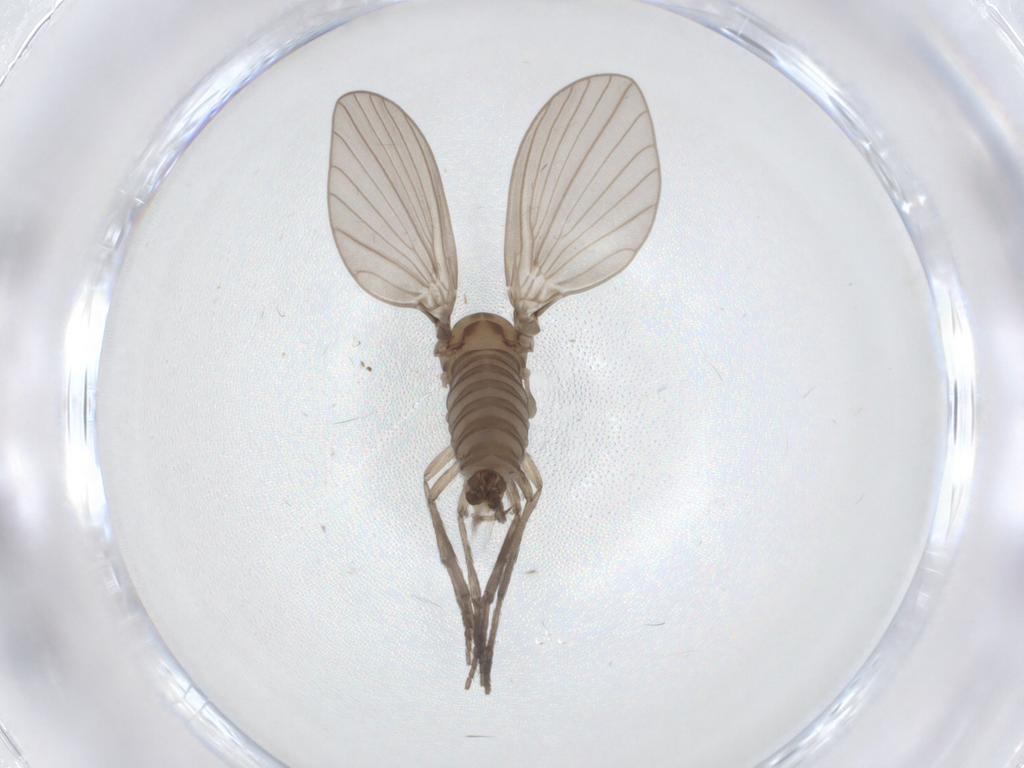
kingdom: Animalia
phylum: Arthropoda
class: Insecta
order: Diptera
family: Psychodidae
